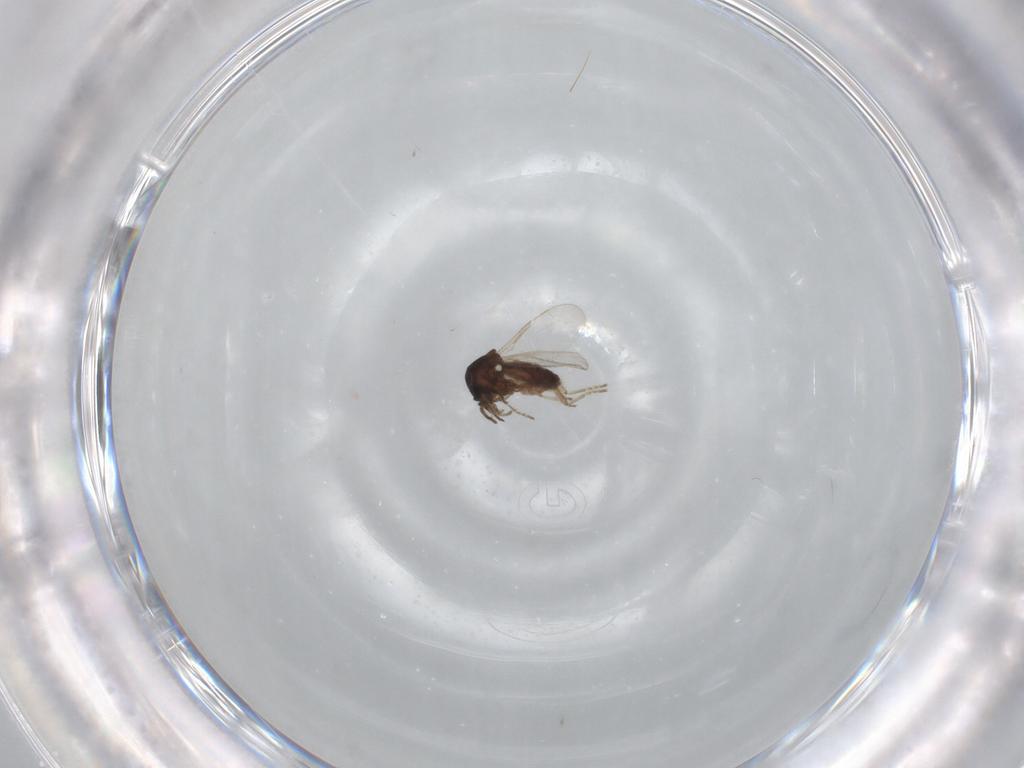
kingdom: Animalia
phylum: Arthropoda
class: Insecta
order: Diptera
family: Ceratopogonidae
